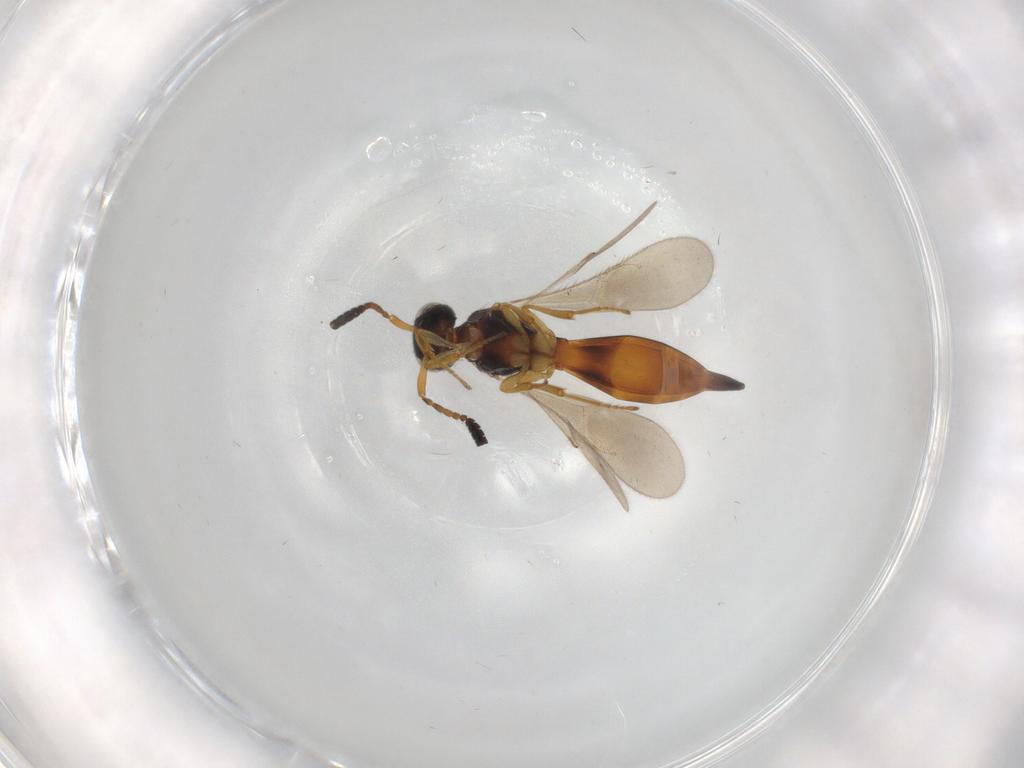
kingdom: Animalia
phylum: Arthropoda
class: Insecta
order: Hymenoptera
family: Scelionidae
